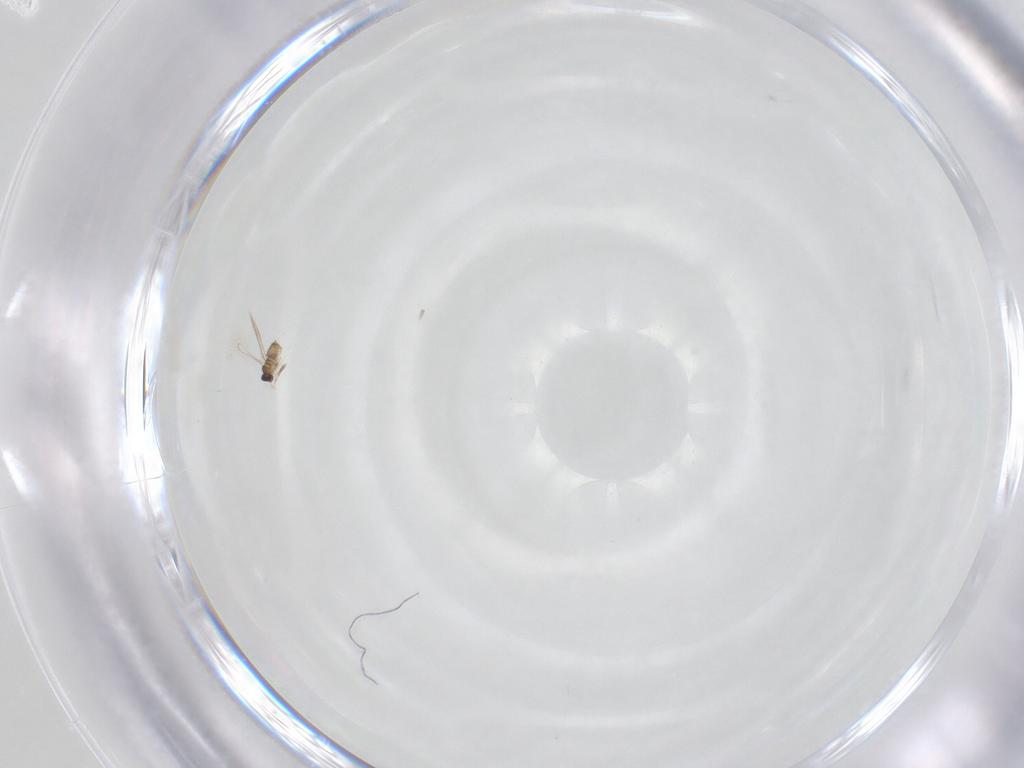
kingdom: Animalia
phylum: Arthropoda
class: Insecta
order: Hymenoptera
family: Mymaridae
